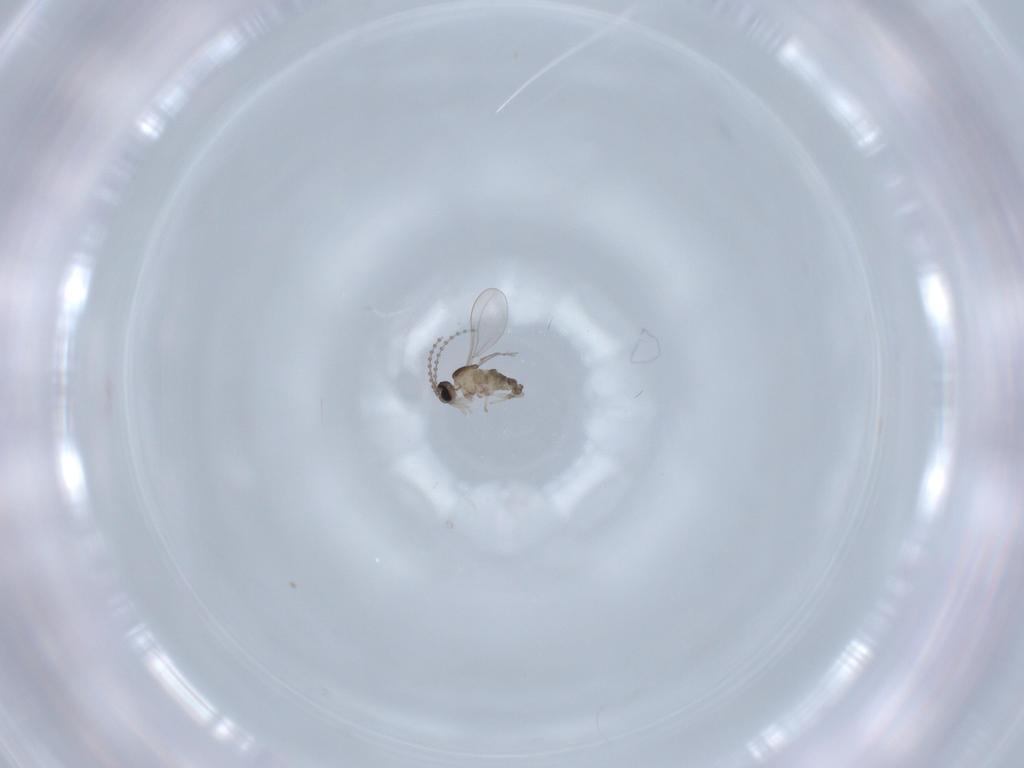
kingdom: Animalia
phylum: Arthropoda
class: Insecta
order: Diptera
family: Cecidomyiidae
